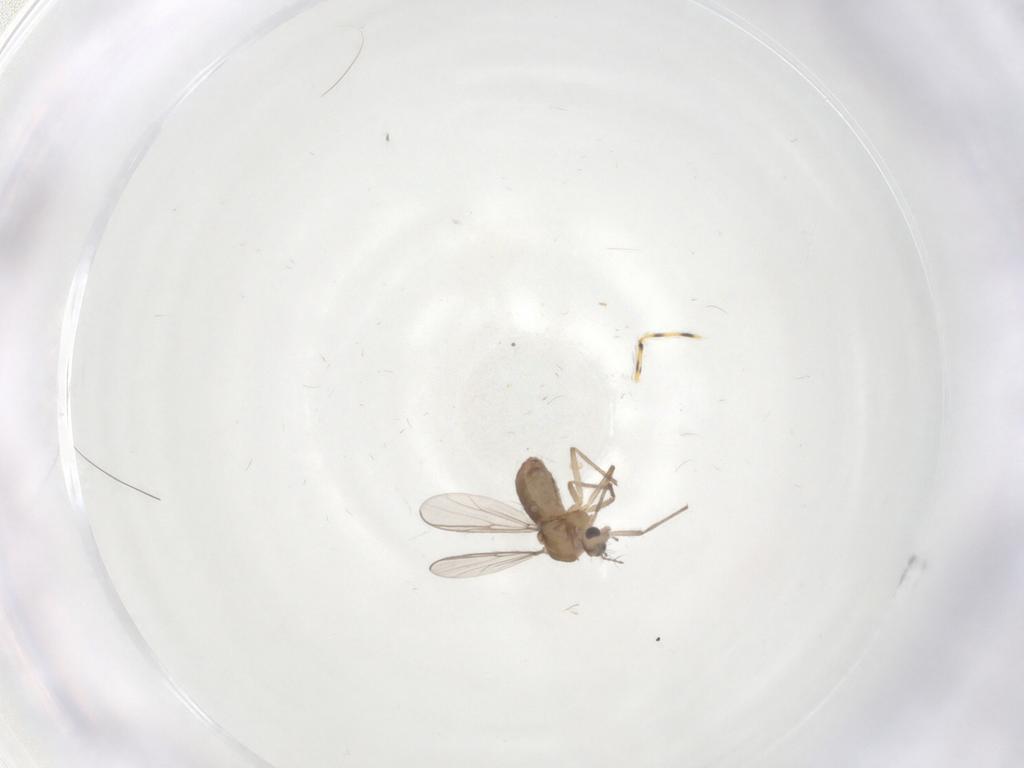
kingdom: Animalia
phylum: Arthropoda
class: Insecta
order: Diptera
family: Chironomidae
